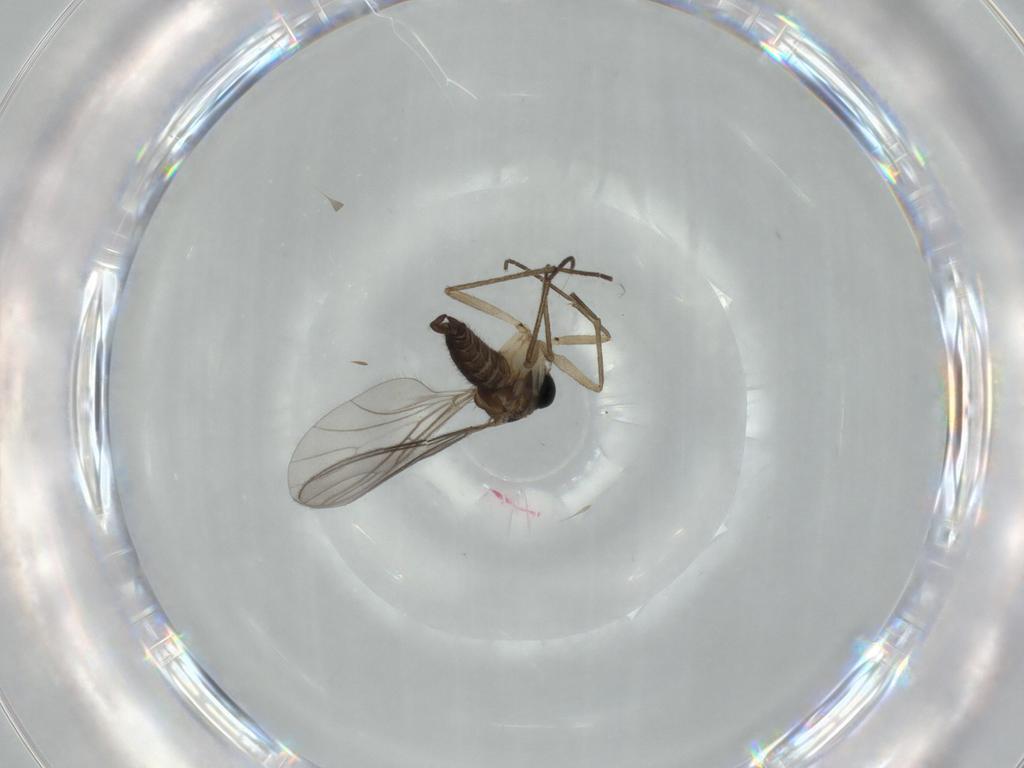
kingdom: Animalia
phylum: Arthropoda
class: Insecta
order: Diptera
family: Sciaridae
